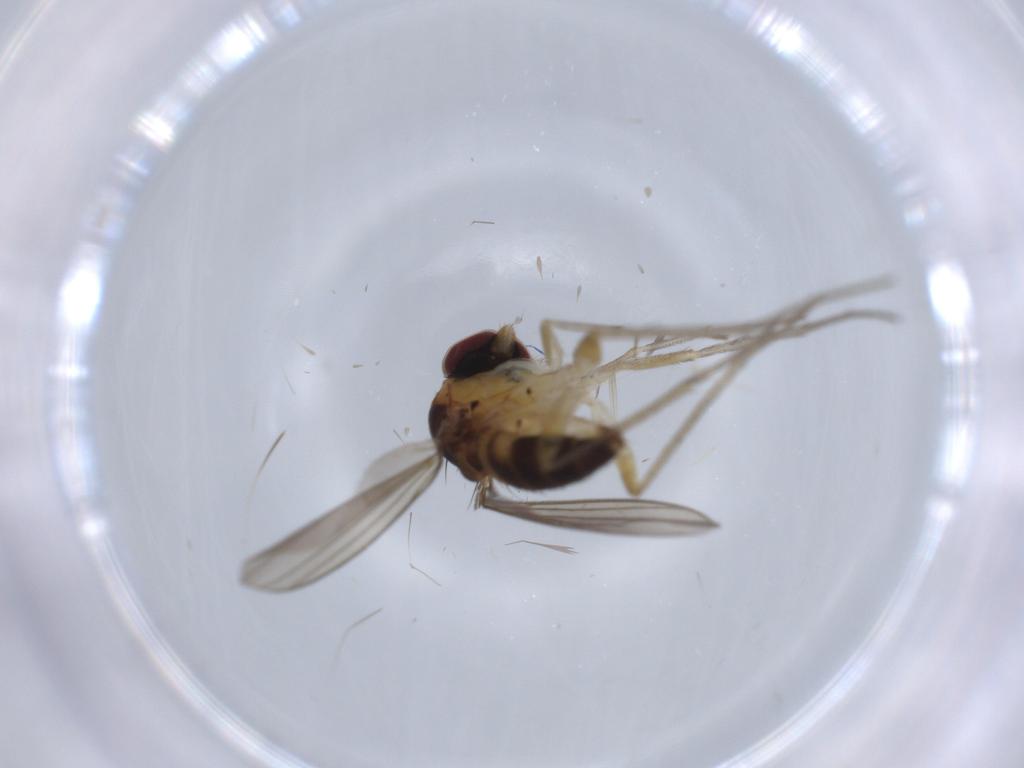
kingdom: Animalia
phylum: Arthropoda
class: Insecta
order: Diptera
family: Dolichopodidae
